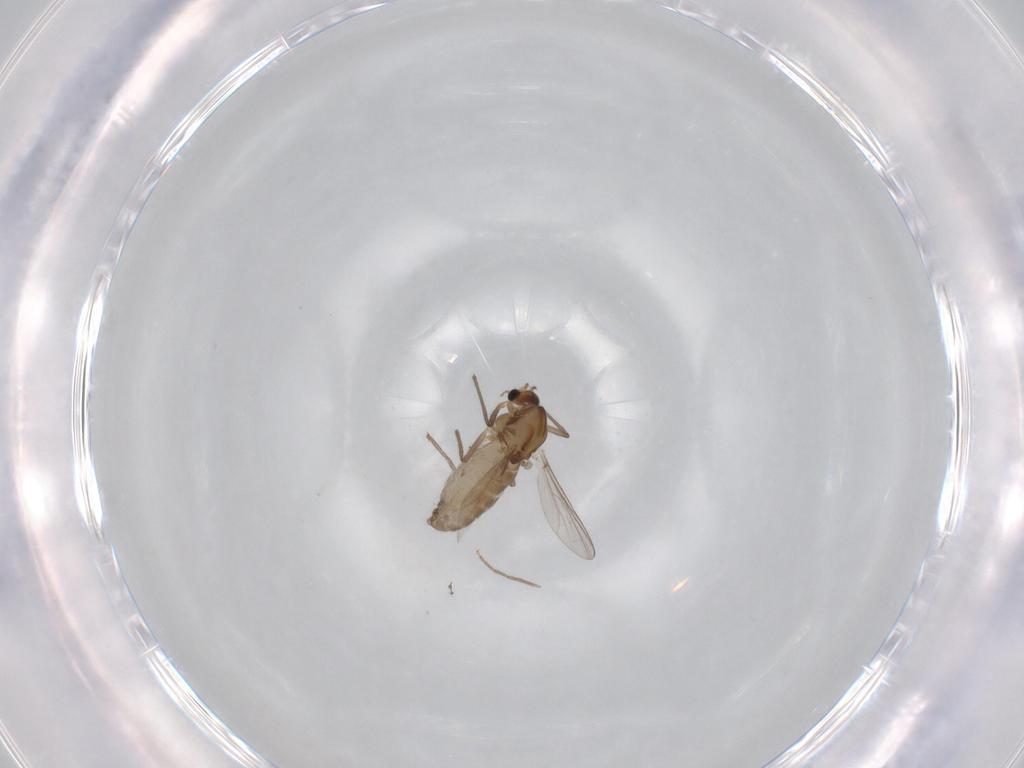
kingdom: Animalia
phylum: Arthropoda
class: Insecta
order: Diptera
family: Chironomidae
